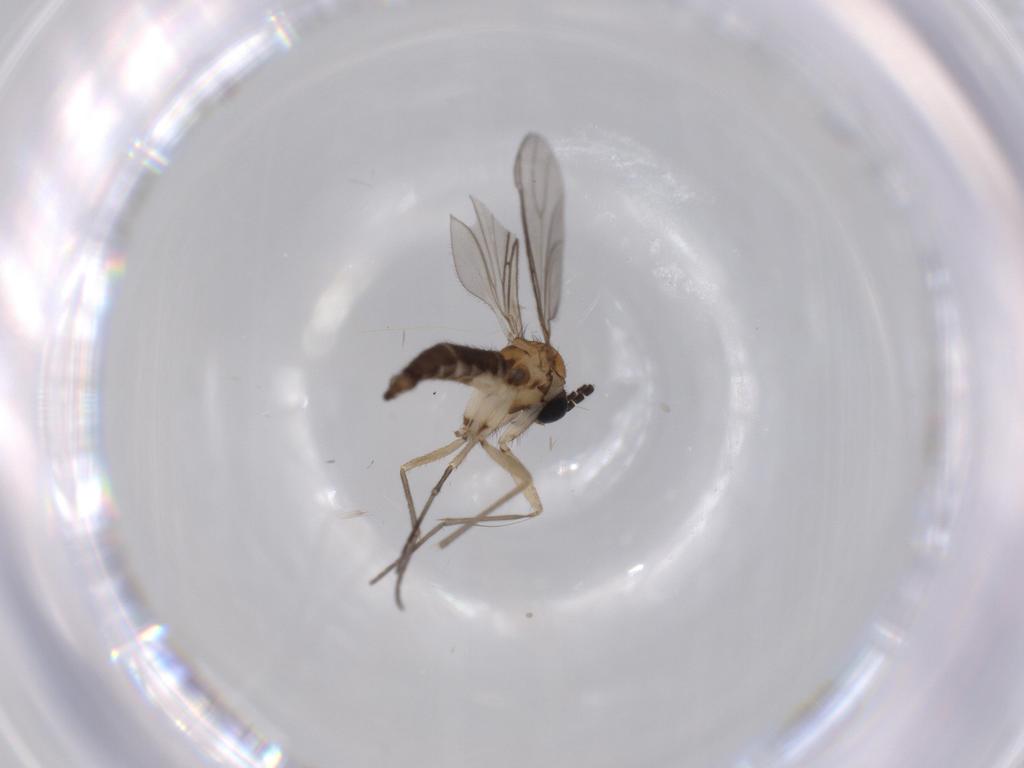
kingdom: Animalia
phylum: Arthropoda
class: Insecta
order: Diptera
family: Sciaridae
